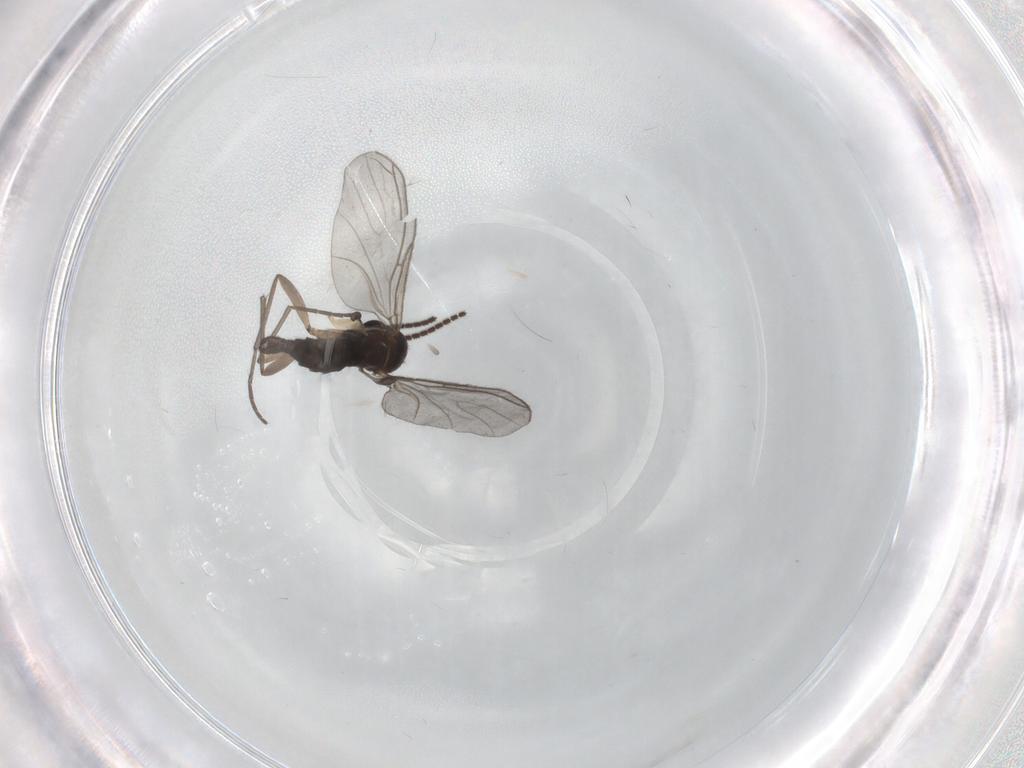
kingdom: Animalia
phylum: Arthropoda
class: Insecta
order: Diptera
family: Sciaridae
